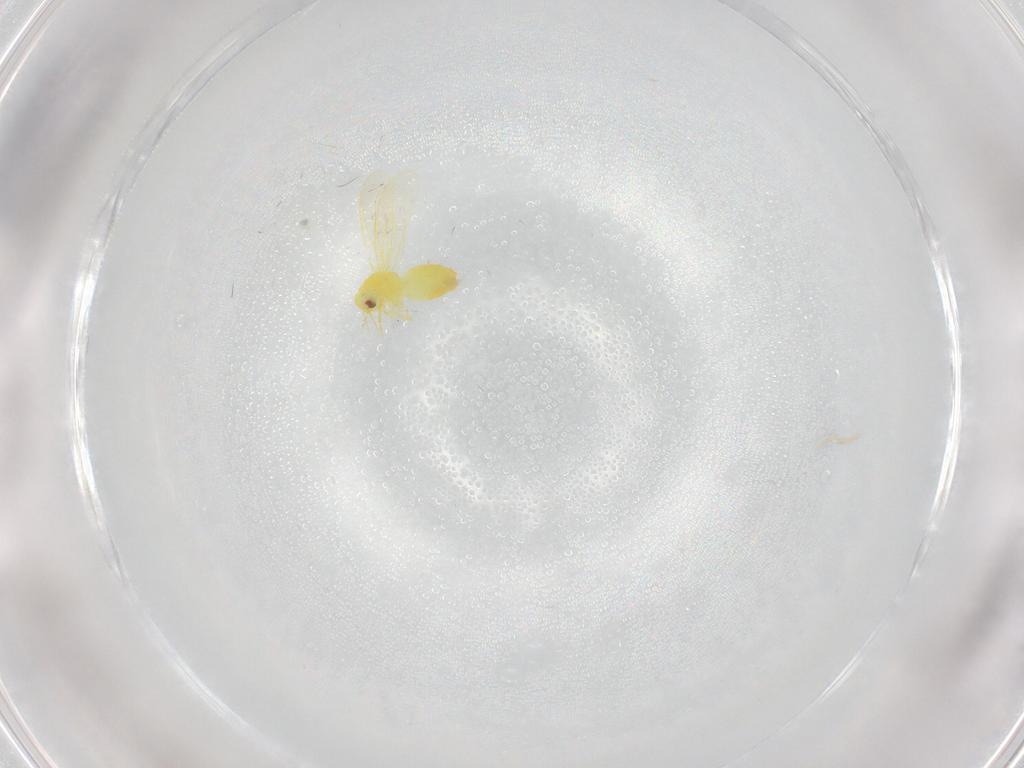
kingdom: Animalia
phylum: Arthropoda
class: Insecta
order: Hemiptera
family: Aleyrodidae
